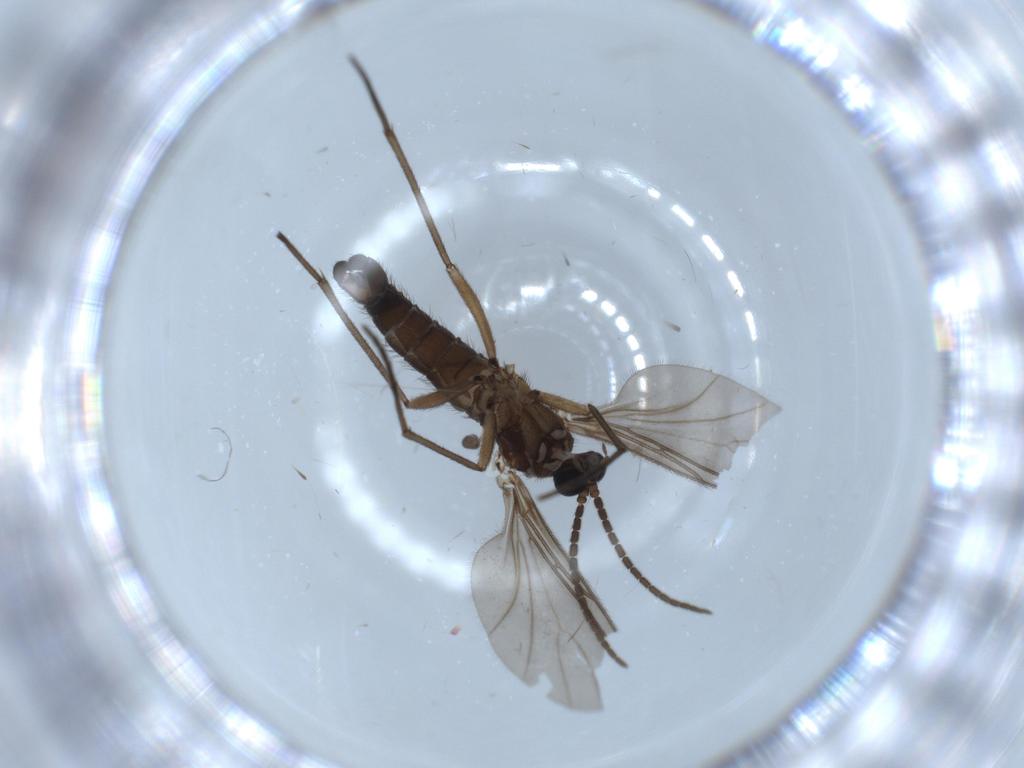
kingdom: Animalia
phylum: Arthropoda
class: Insecta
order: Diptera
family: Sciaridae
